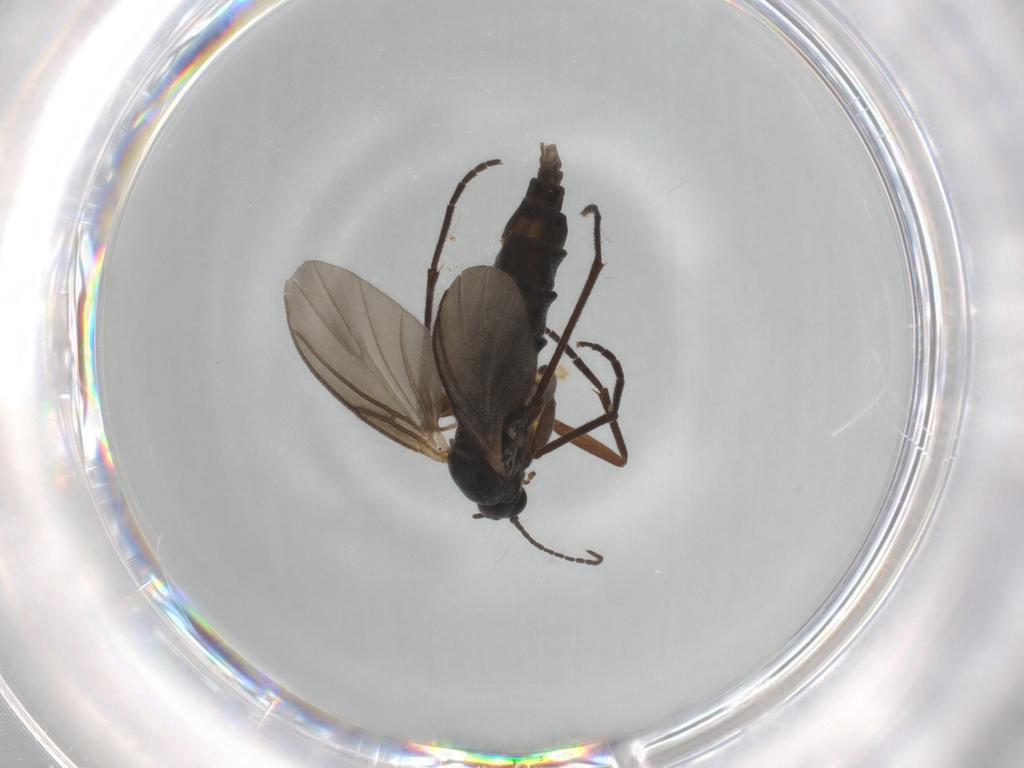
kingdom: Animalia
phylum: Arthropoda
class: Insecta
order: Diptera
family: Sciaridae
